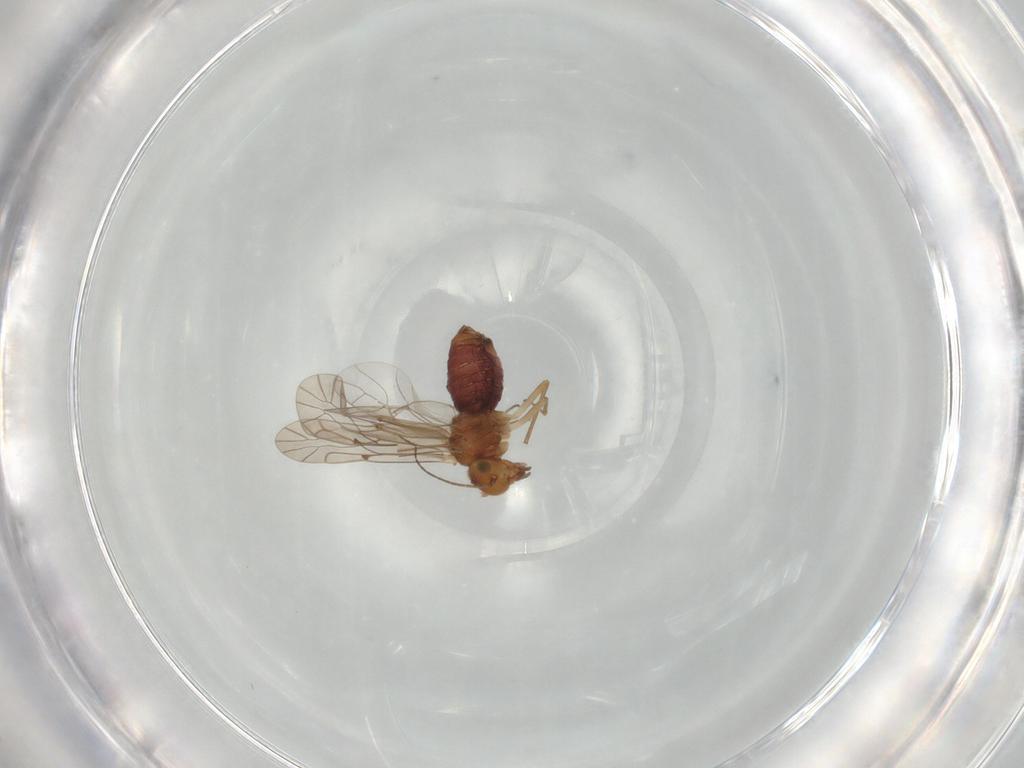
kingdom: Animalia
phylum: Arthropoda
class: Insecta
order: Psocodea
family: Lachesillidae
